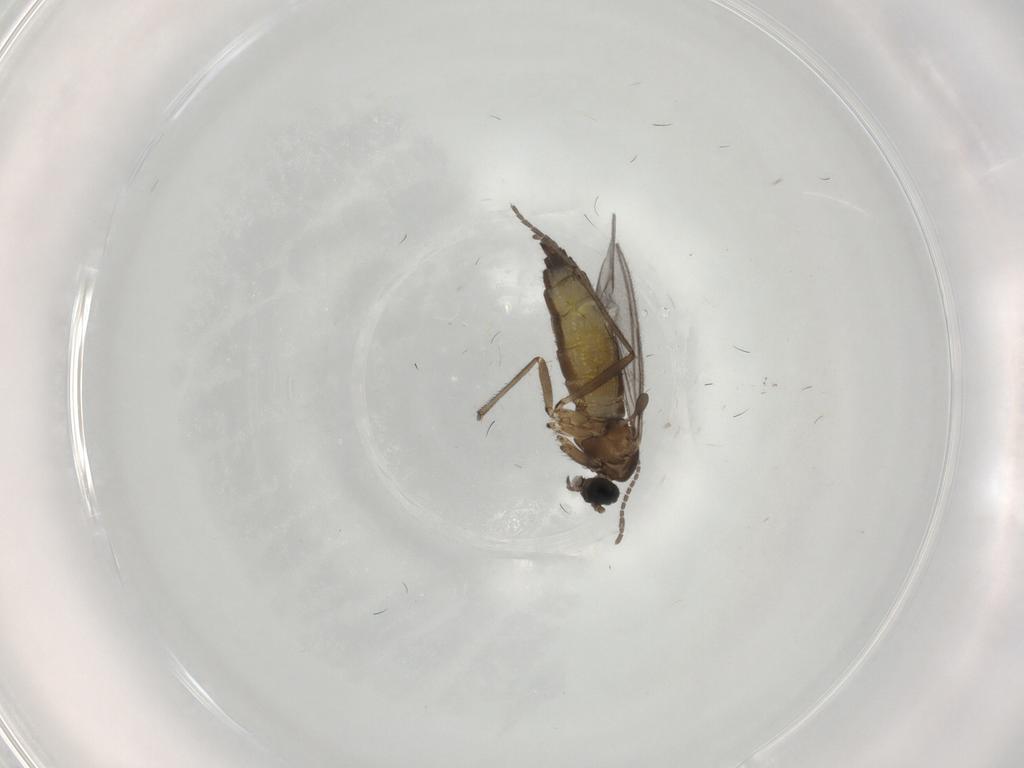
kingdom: Animalia
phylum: Arthropoda
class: Insecta
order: Diptera
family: Sciaridae
